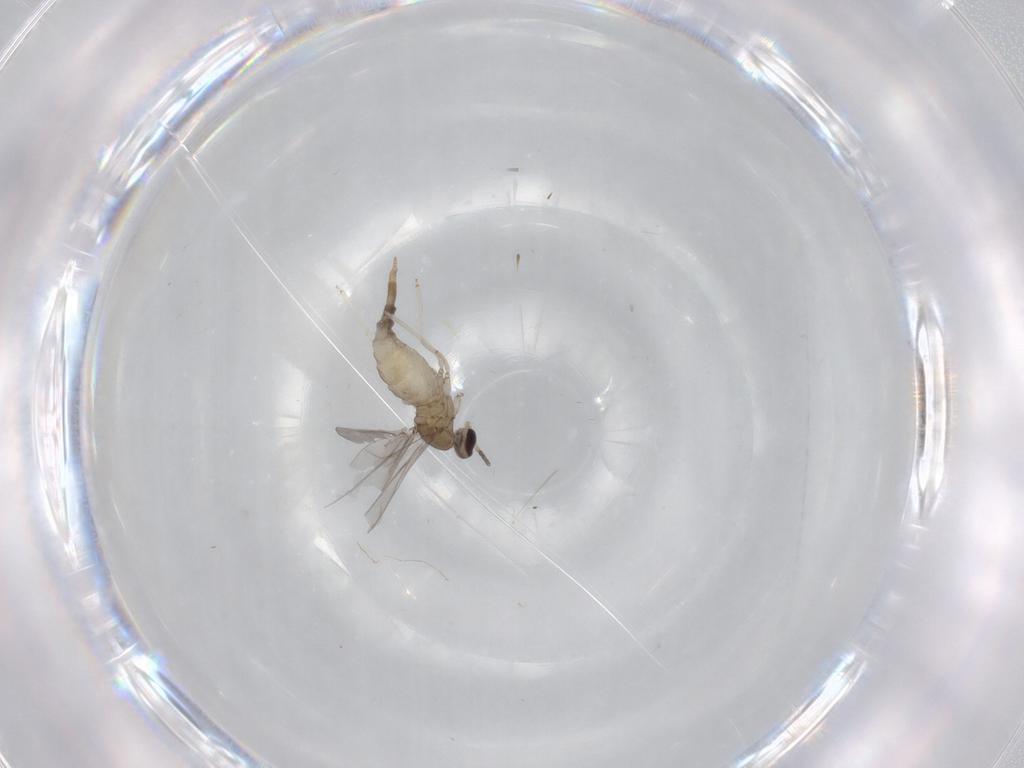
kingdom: Animalia
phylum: Arthropoda
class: Insecta
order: Diptera
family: Cecidomyiidae
